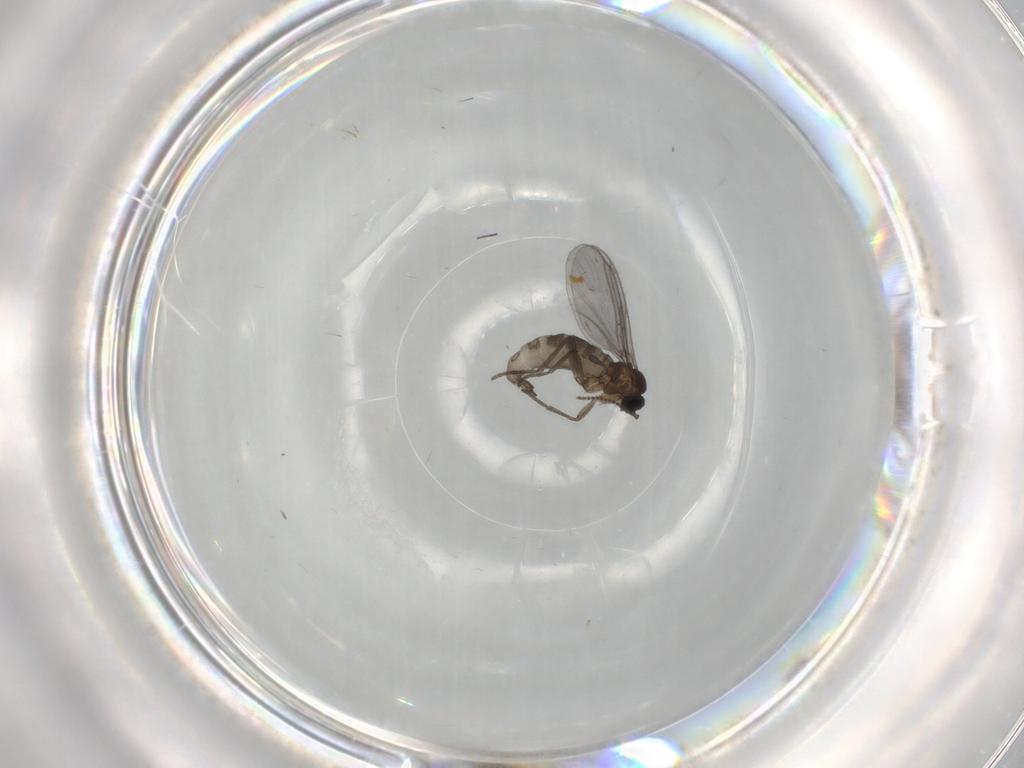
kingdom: Animalia
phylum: Arthropoda
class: Insecta
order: Diptera
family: Cecidomyiidae
